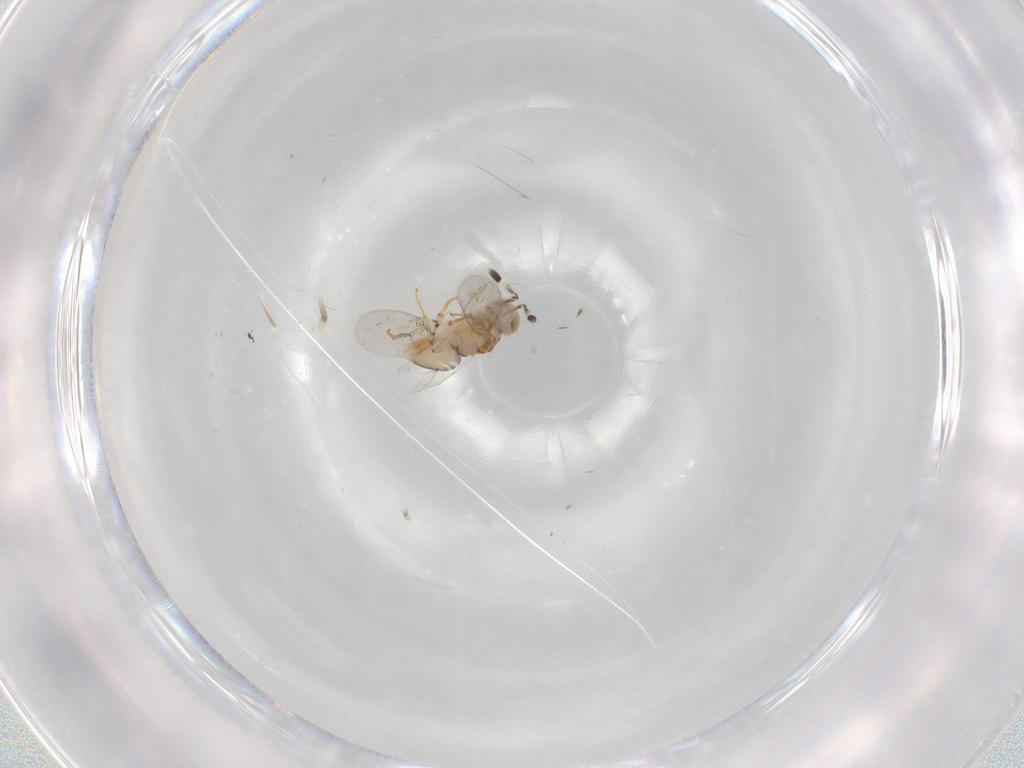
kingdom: Animalia
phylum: Arthropoda
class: Insecta
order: Hymenoptera
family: Encyrtidae
